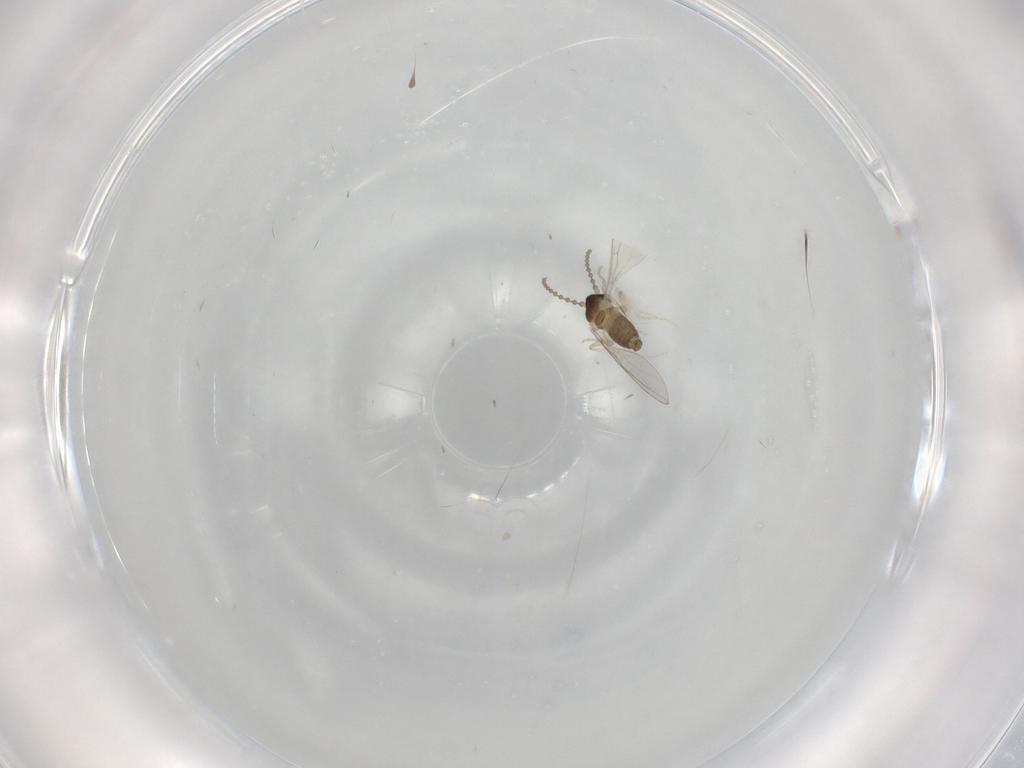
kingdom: Animalia
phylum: Arthropoda
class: Insecta
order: Diptera
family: Cecidomyiidae
